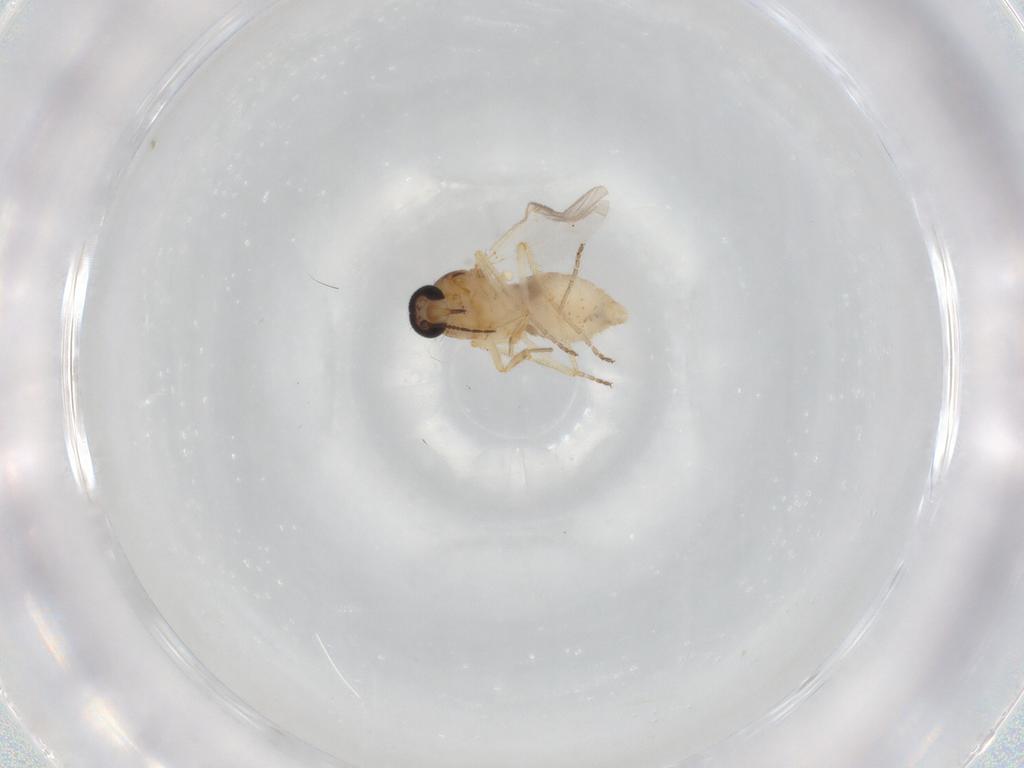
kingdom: Animalia
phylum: Arthropoda
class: Insecta
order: Diptera
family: Ceratopogonidae
